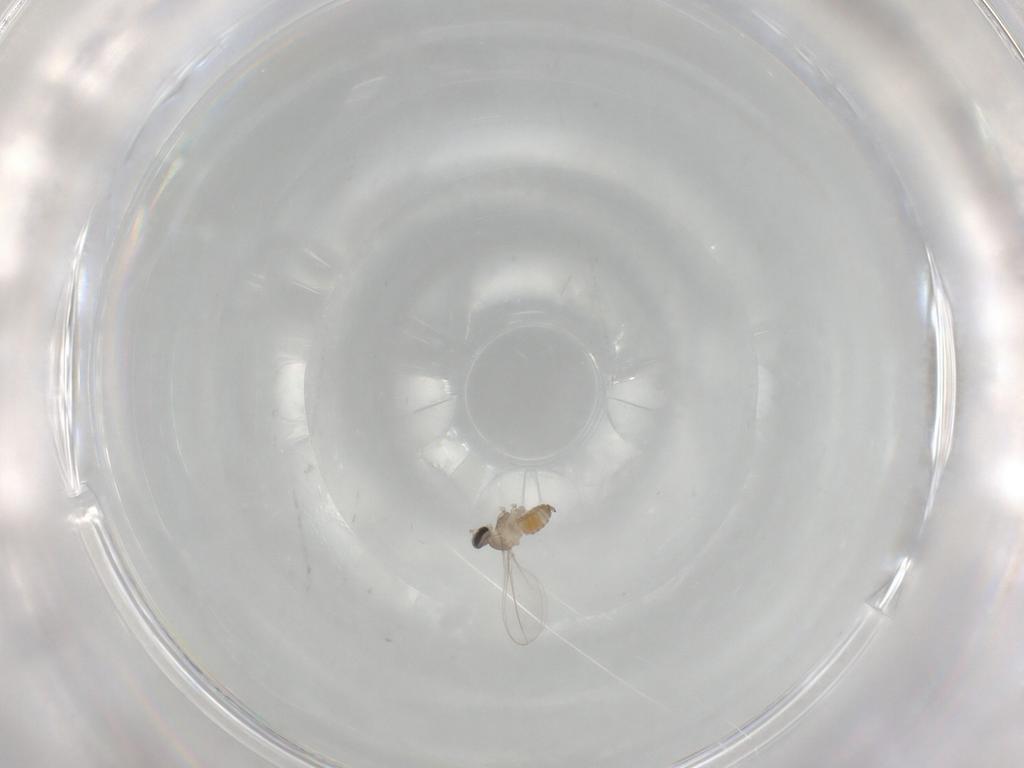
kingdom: Animalia
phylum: Arthropoda
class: Insecta
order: Diptera
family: Cecidomyiidae
